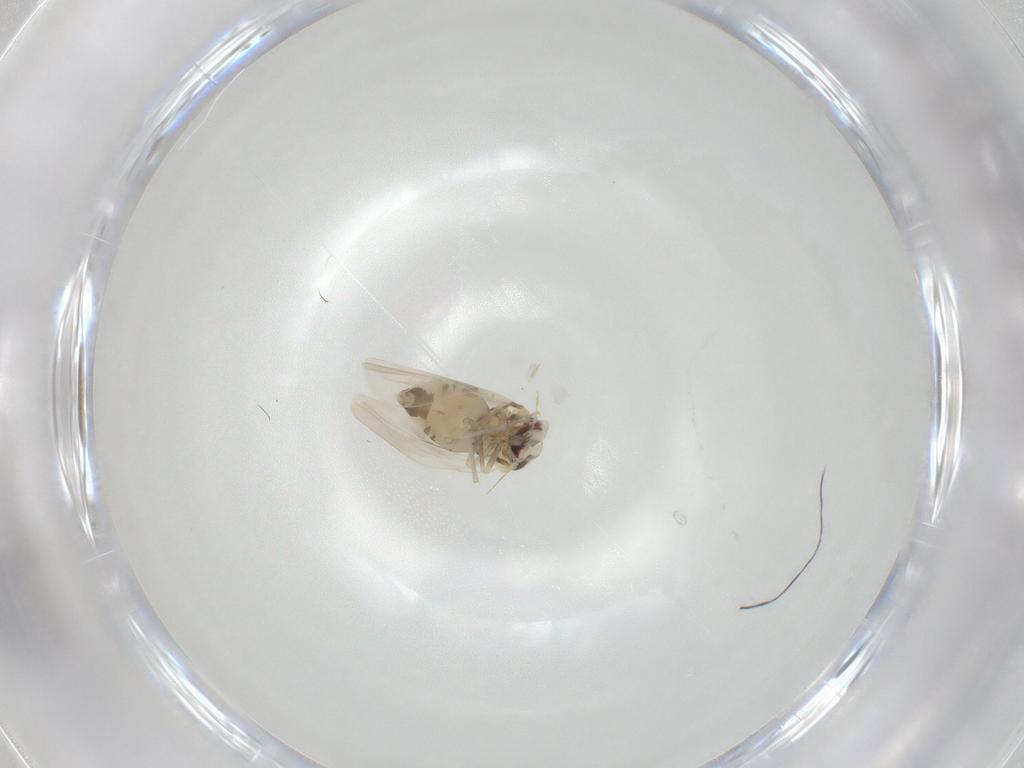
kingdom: Animalia
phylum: Arthropoda
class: Insecta
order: Hemiptera
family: Aleyrodidae
